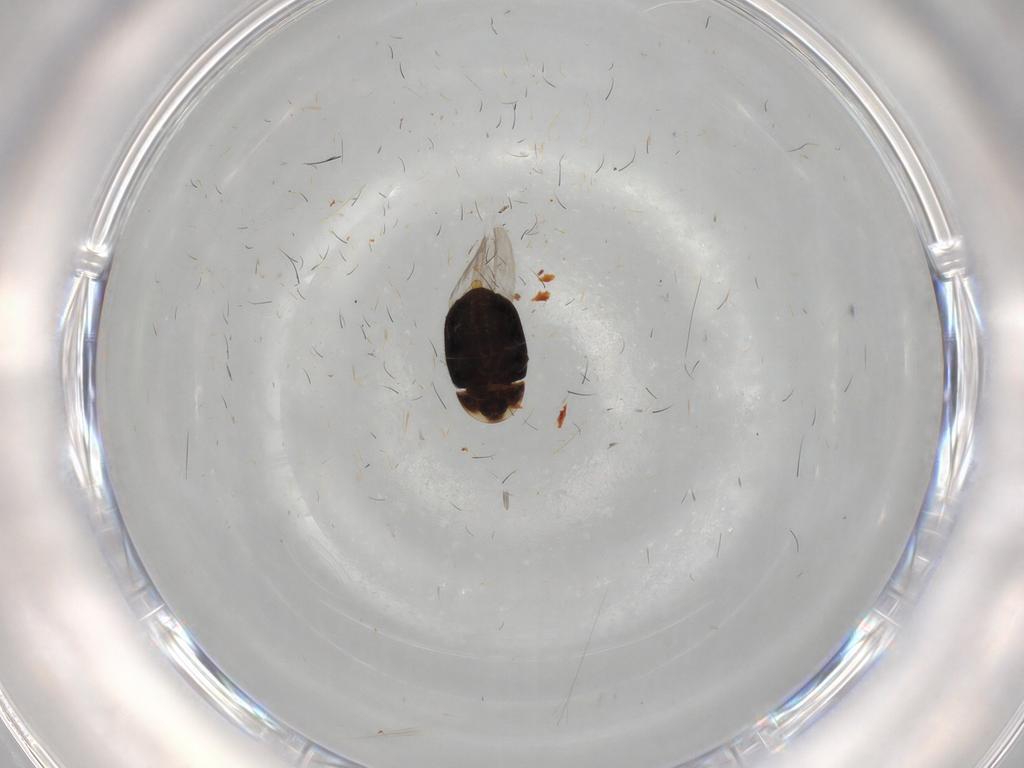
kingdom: Animalia
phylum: Arthropoda
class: Insecta
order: Coleoptera
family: Corylophidae
